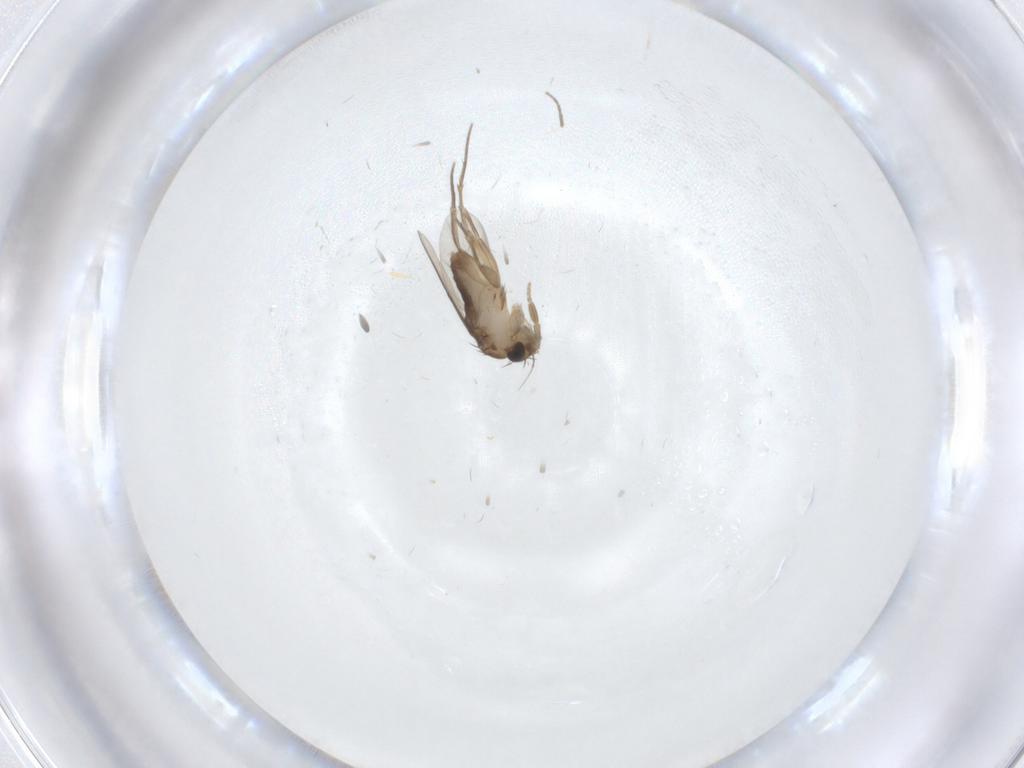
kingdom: Animalia
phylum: Arthropoda
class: Insecta
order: Diptera
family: Phoridae
